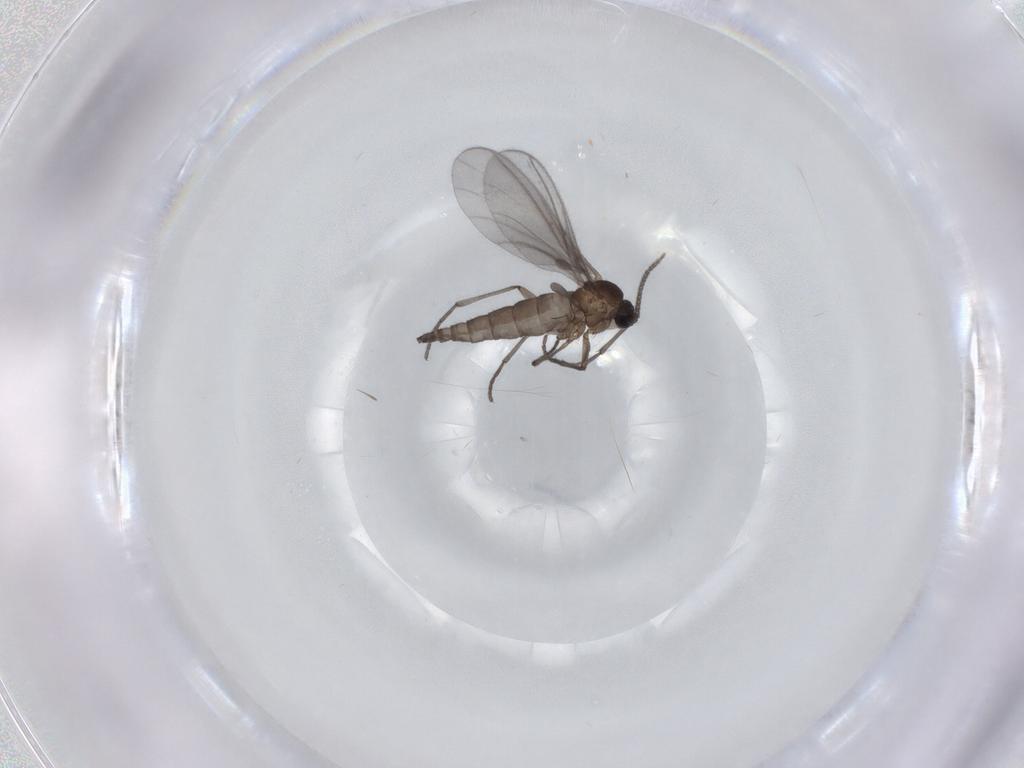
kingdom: Animalia
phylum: Arthropoda
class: Insecta
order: Diptera
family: Sciaridae
